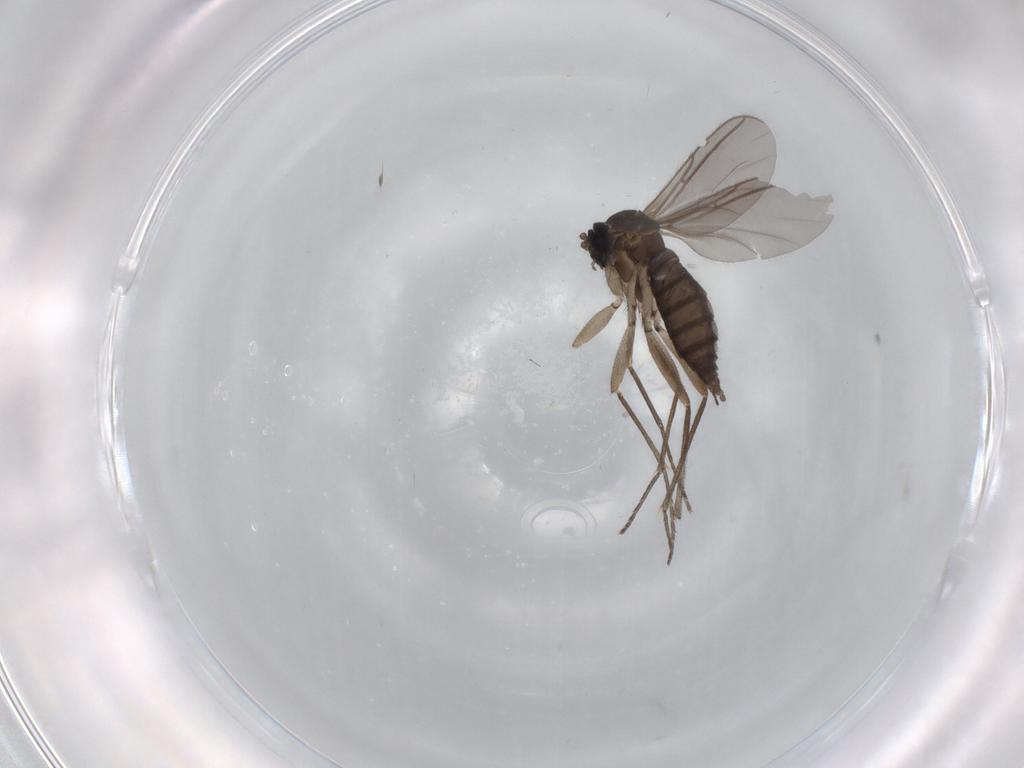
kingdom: Animalia
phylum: Arthropoda
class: Insecta
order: Diptera
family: Sciaridae
